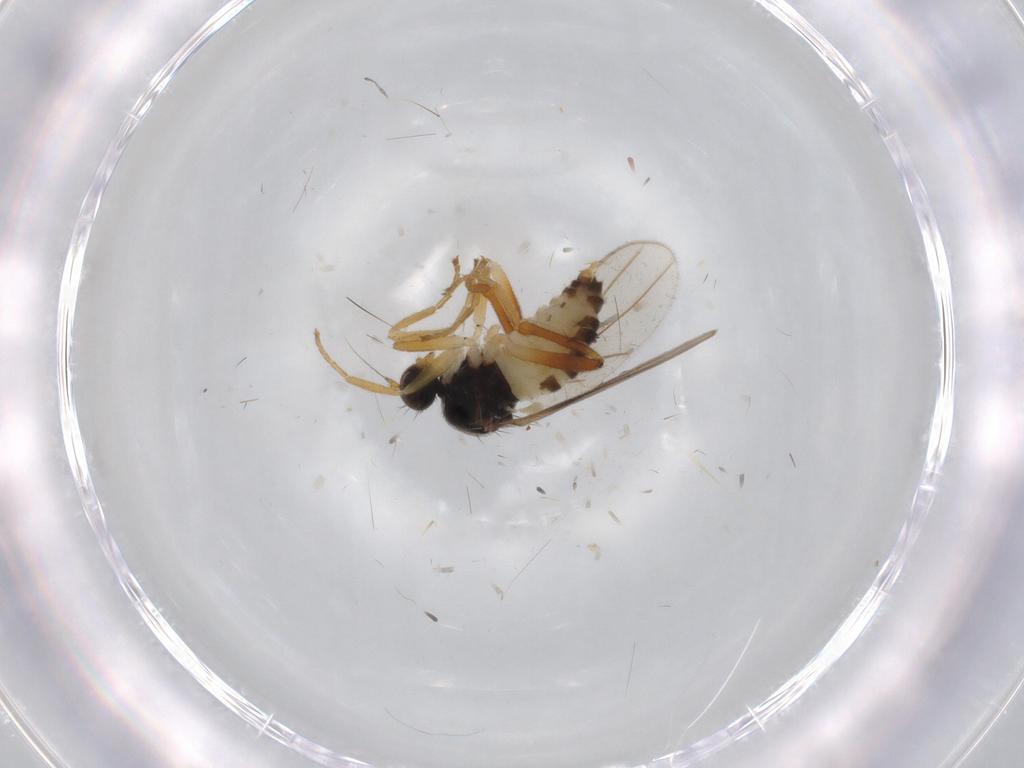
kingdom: Animalia
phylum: Arthropoda
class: Insecta
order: Diptera
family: Hybotidae
